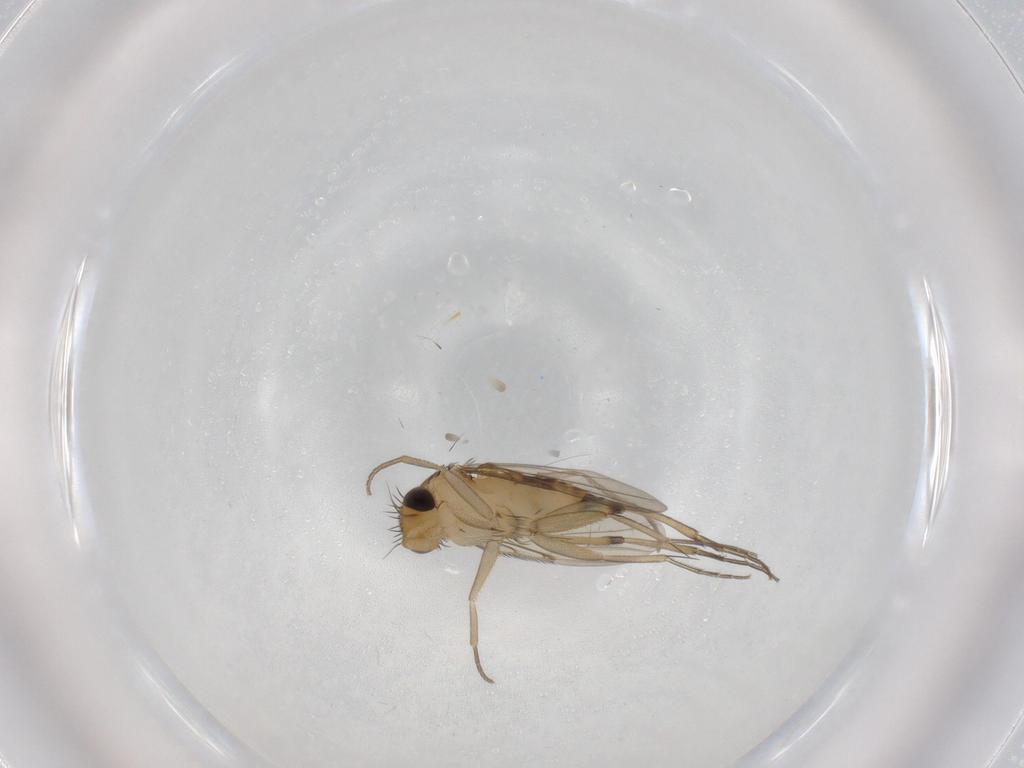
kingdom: Animalia
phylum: Arthropoda
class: Insecta
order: Diptera
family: Phoridae
